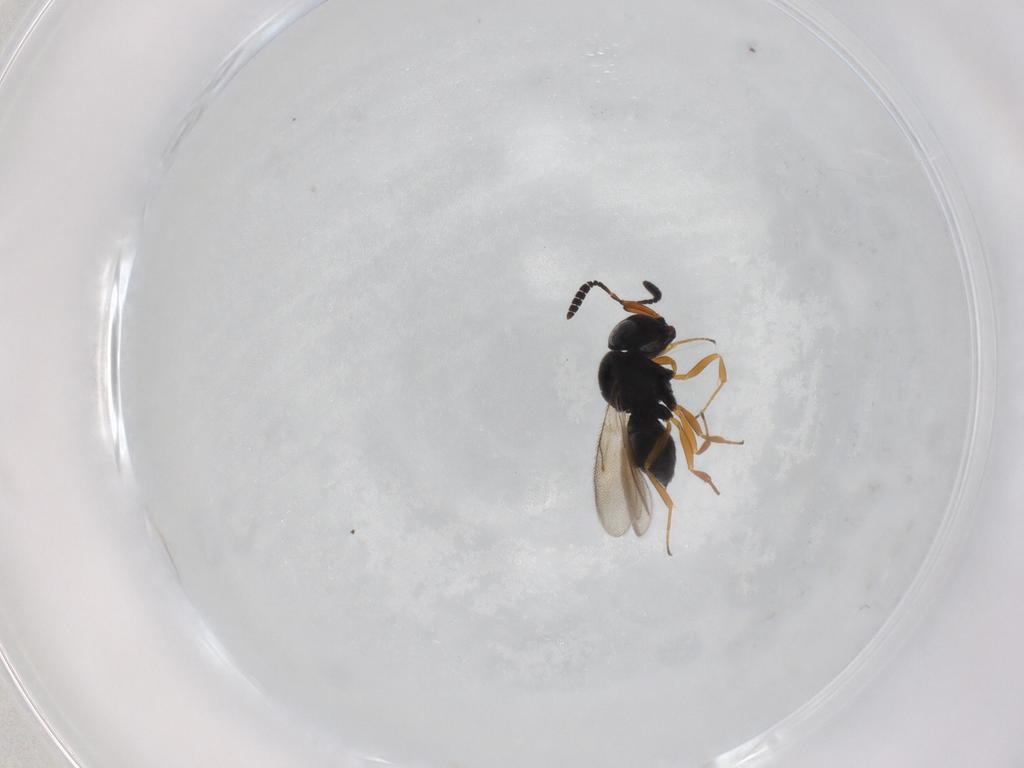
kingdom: Animalia
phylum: Arthropoda
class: Insecta
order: Hymenoptera
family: Scelionidae
